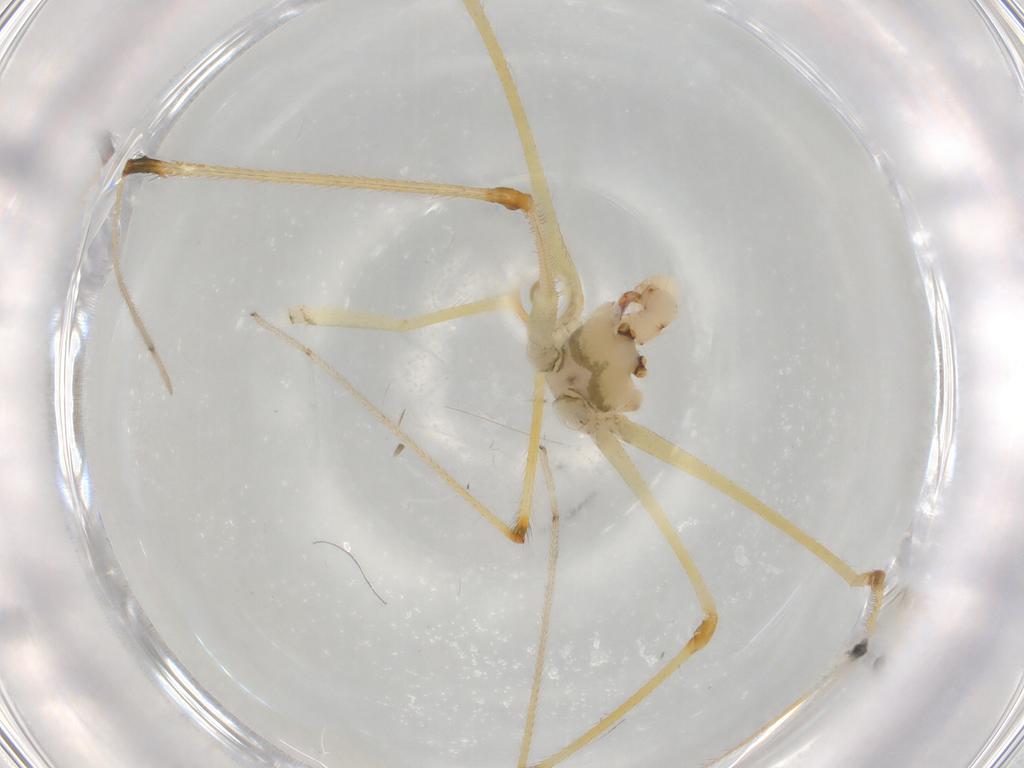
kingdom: Animalia
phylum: Arthropoda
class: Arachnida
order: Araneae
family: Pholcidae
